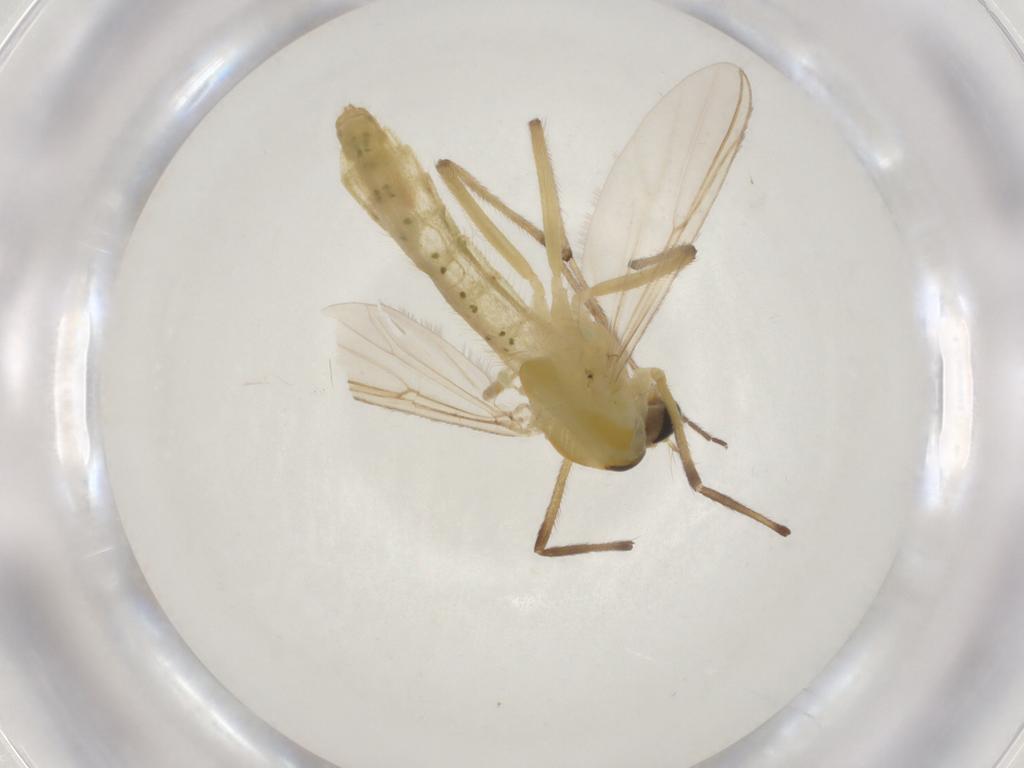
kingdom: Animalia
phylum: Arthropoda
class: Insecta
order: Diptera
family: Chironomidae
